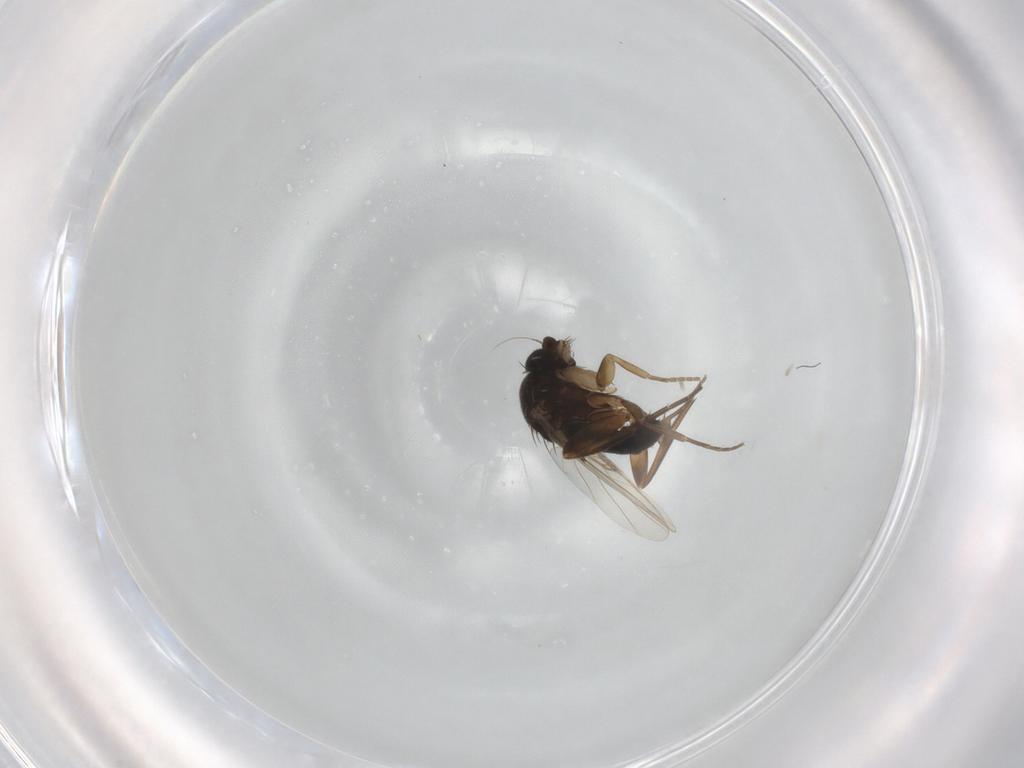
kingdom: Animalia
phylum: Arthropoda
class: Insecta
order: Diptera
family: Phoridae
